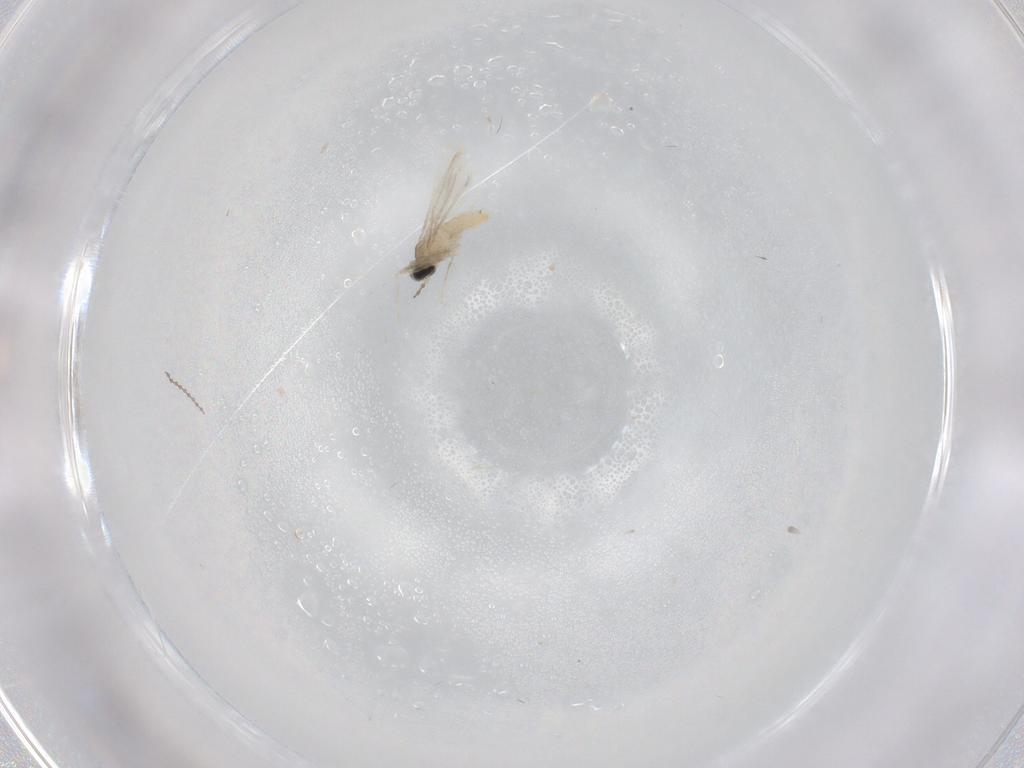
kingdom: Animalia
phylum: Arthropoda
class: Insecta
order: Diptera
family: Cecidomyiidae
